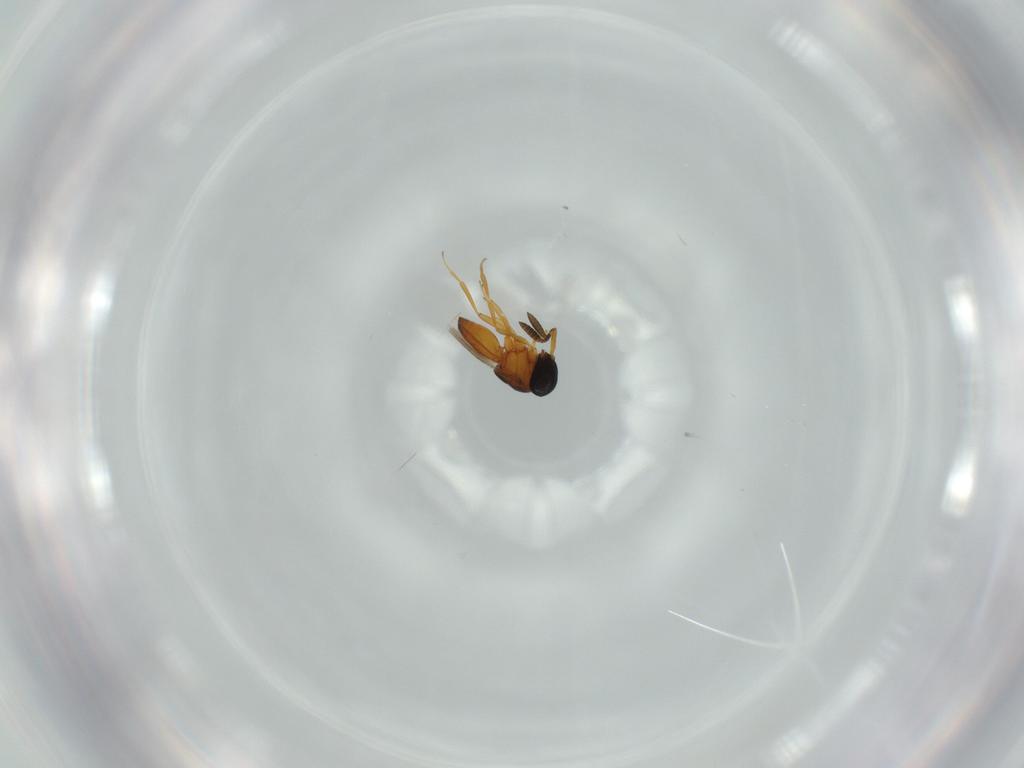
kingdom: Animalia
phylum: Arthropoda
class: Insecta
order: Hymenoptera
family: Scelionidae
